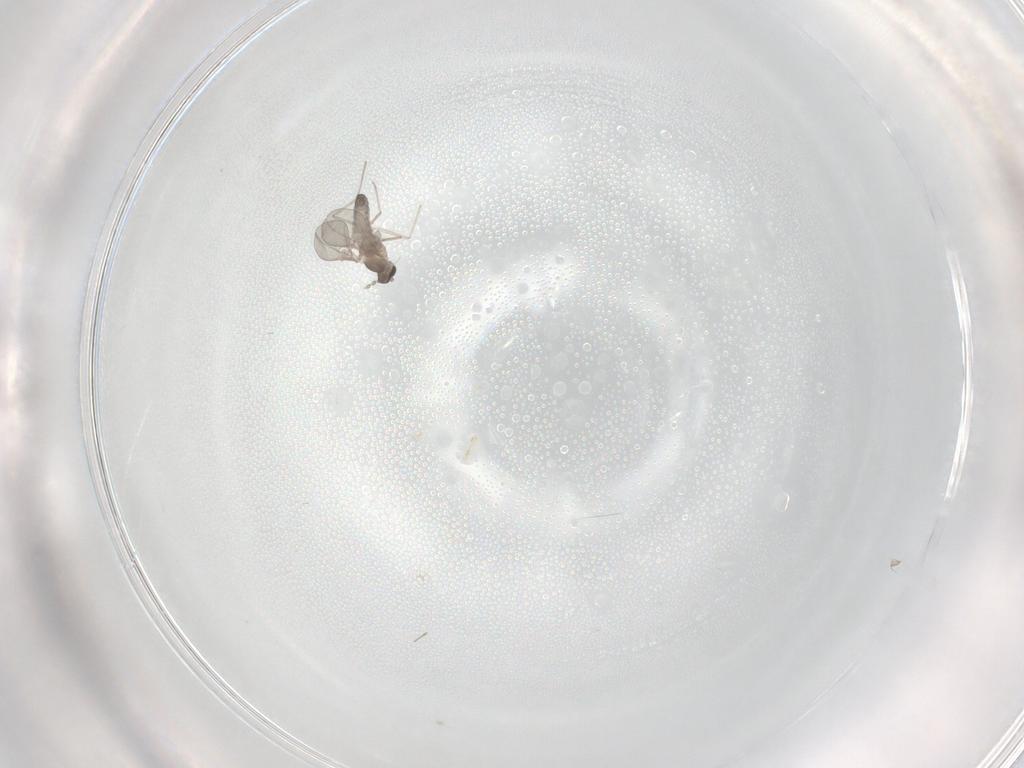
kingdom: Animalia
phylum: Arthropoda
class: Insecta
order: Diptera
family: Cecidomyiidae
